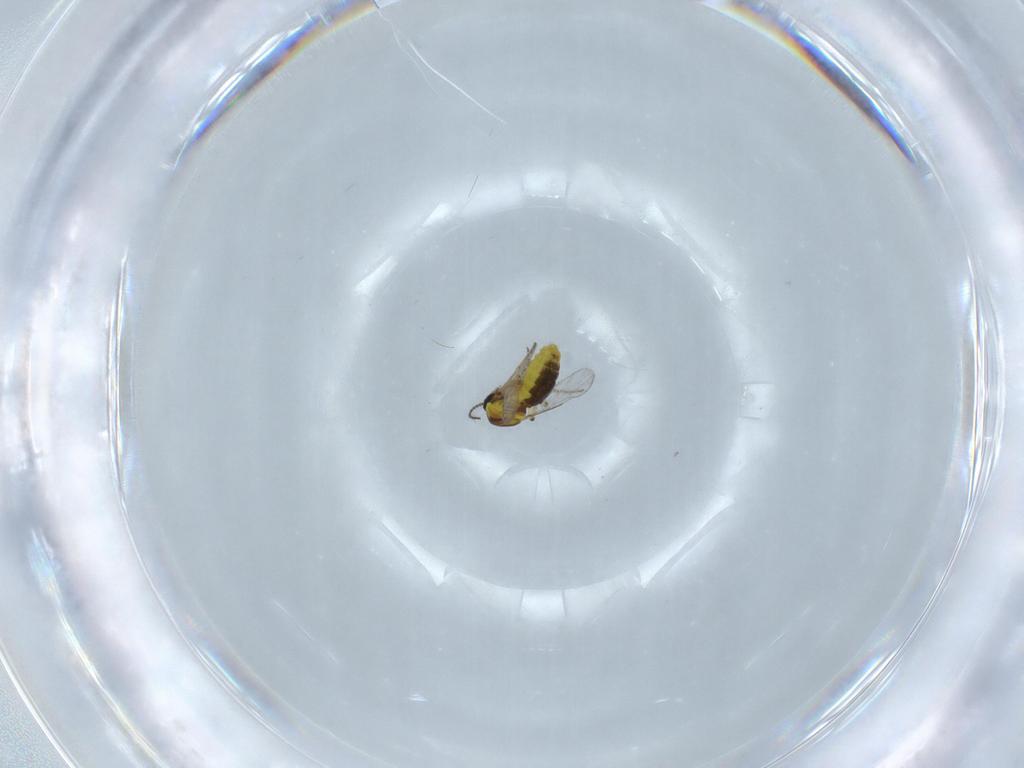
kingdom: Animalia
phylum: Arthropoda
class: Insecta
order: Diptera
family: Ceratopogonidae
